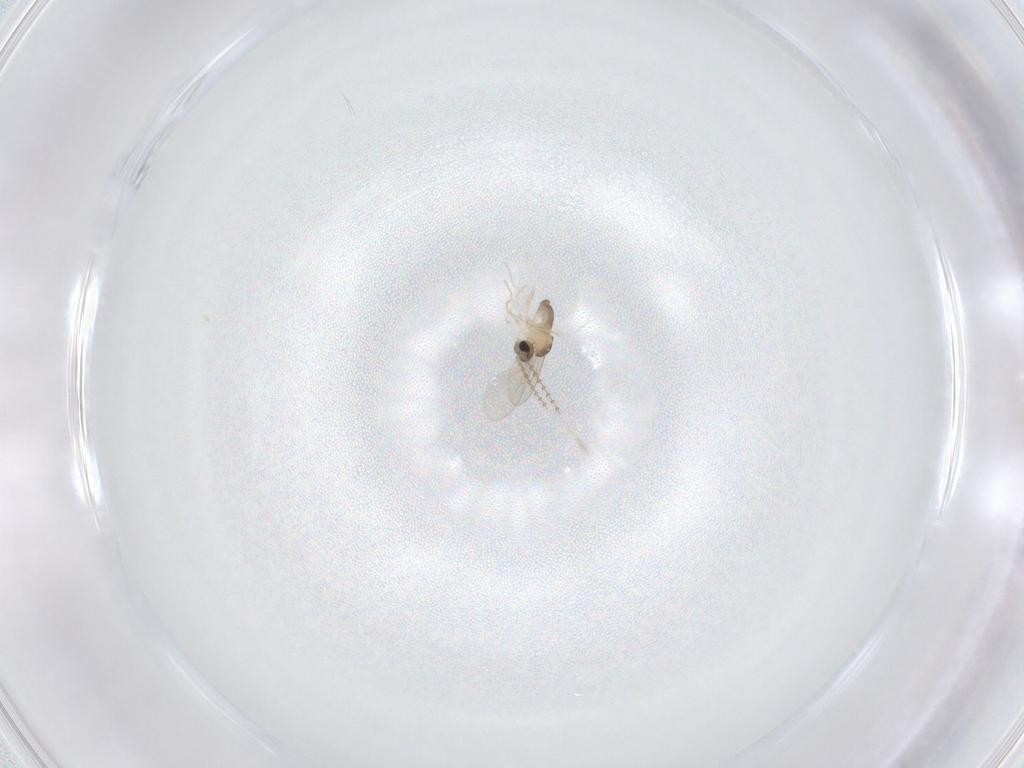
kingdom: Animalia
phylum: Arthropoda
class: Insecta
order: Diptera
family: Cecidomyiidae
